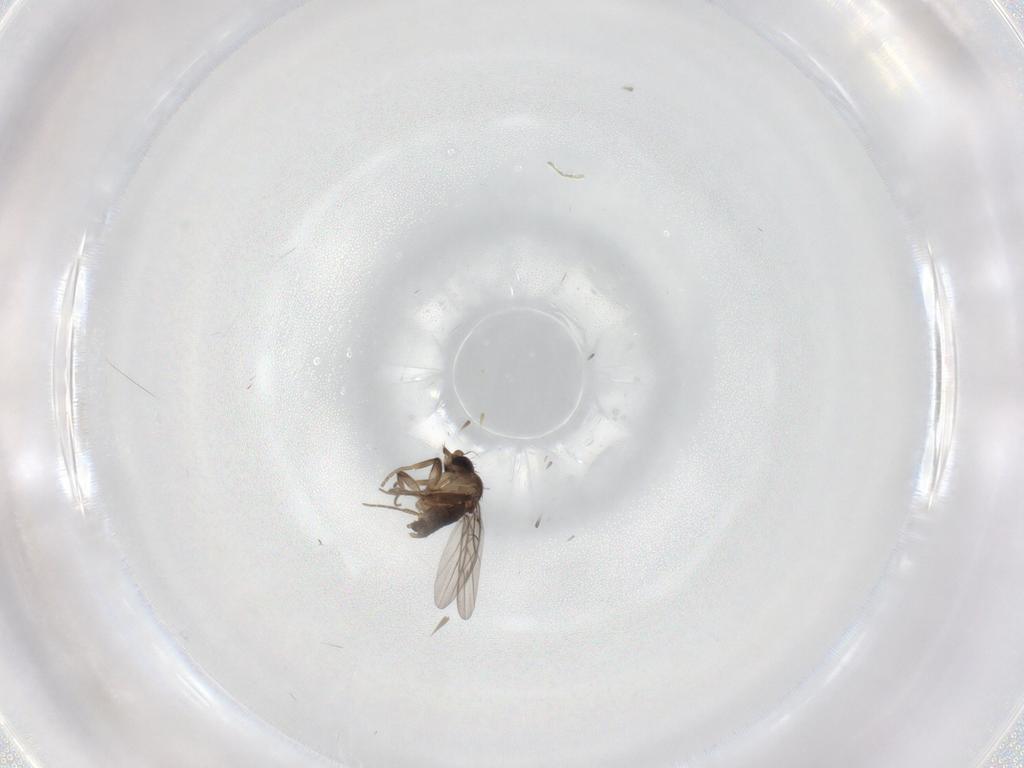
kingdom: Animalia
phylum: Arthropoda
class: Insecta
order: Diptera
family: Phoridae
